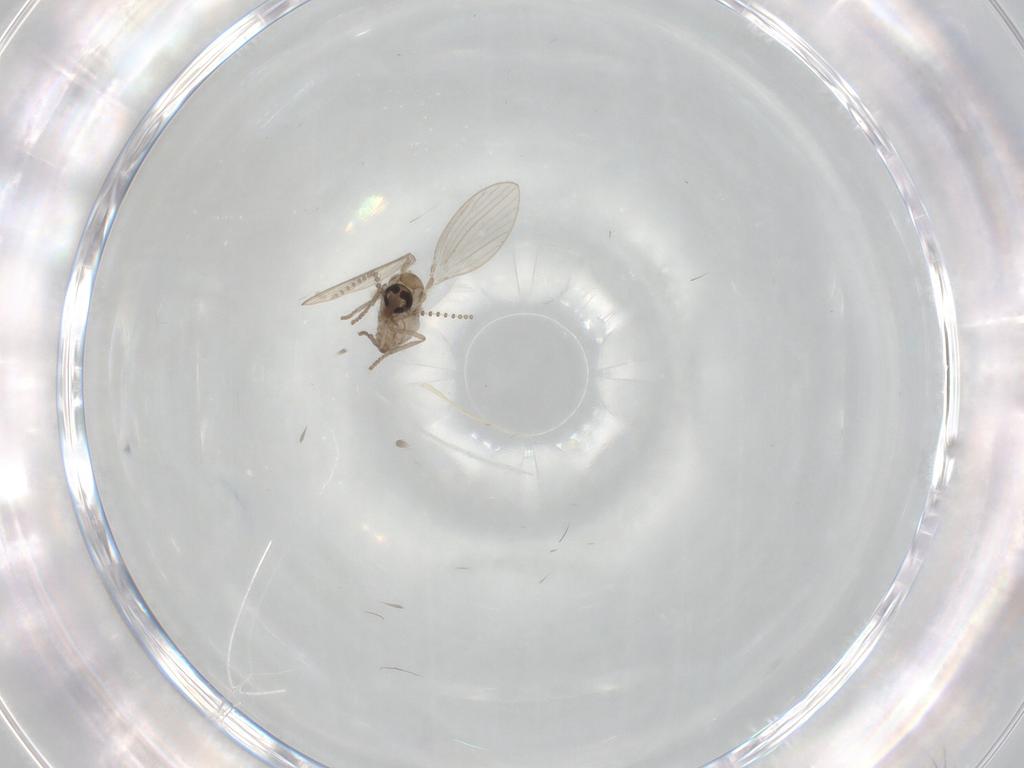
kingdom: Animalia
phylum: Arthropoda
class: Insecta
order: Diptera
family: Psychodidae
